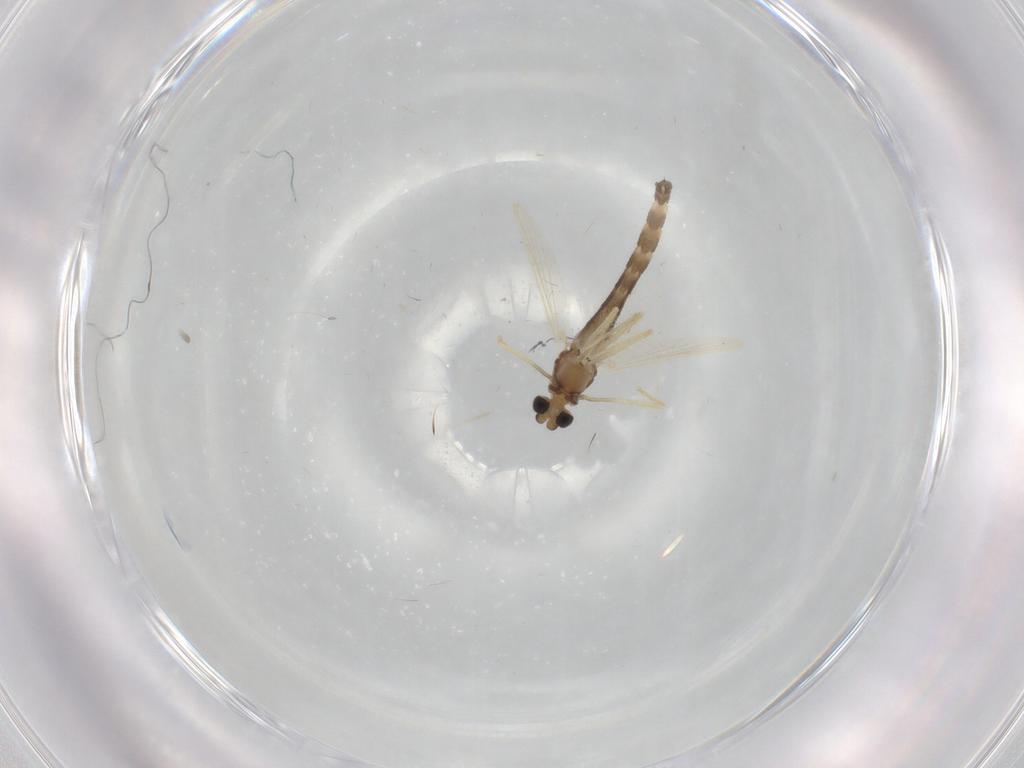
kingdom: Animalia
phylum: Arthropoda
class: Insecta
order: Diptera
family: Chironomidae
